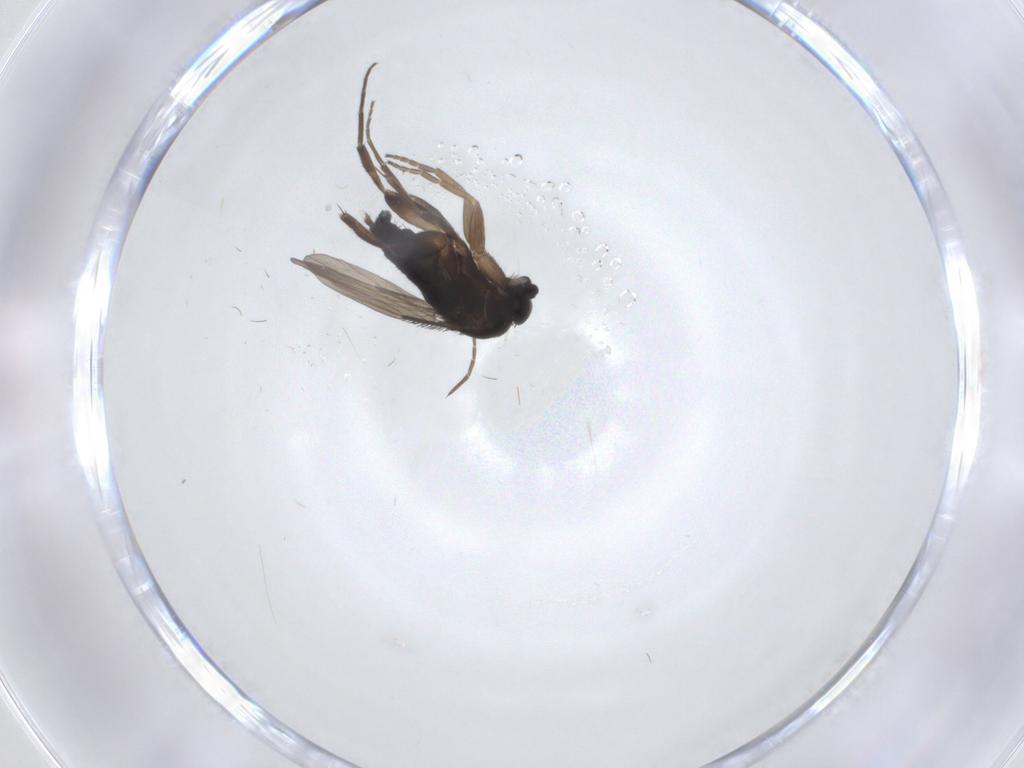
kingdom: Animalia
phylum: Arthropoda
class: Insecta
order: Diptera
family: Phoridae
